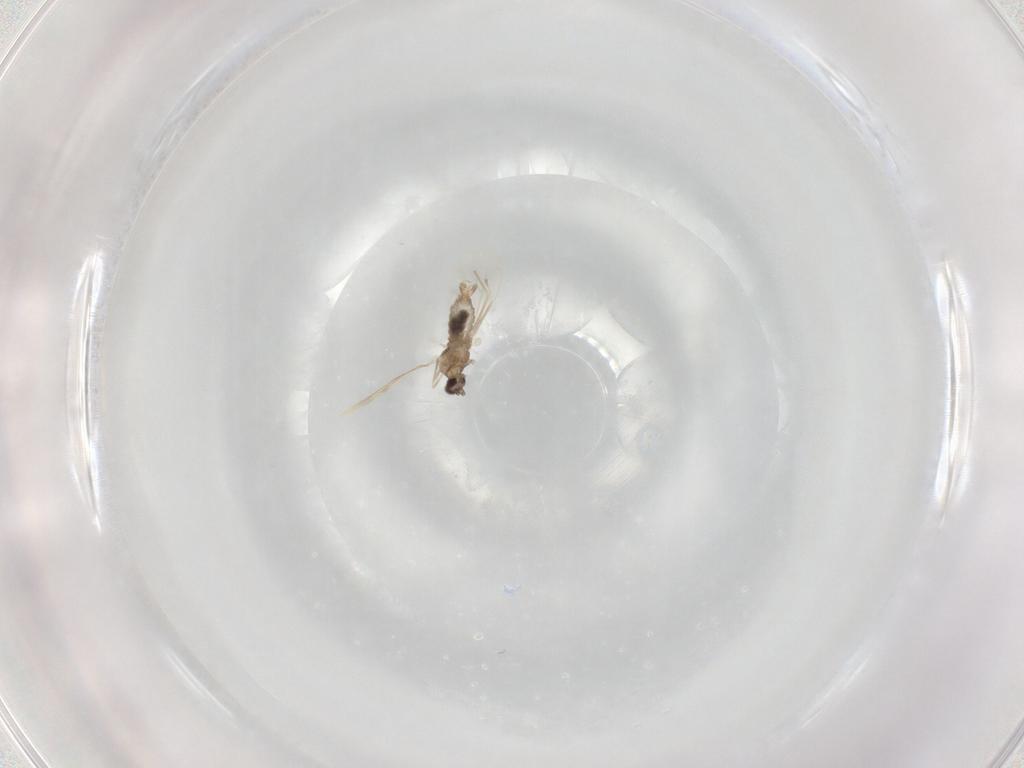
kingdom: Animalia
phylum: Arthropoda
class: Insecta
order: Diptera
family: Cecidomyiidae
